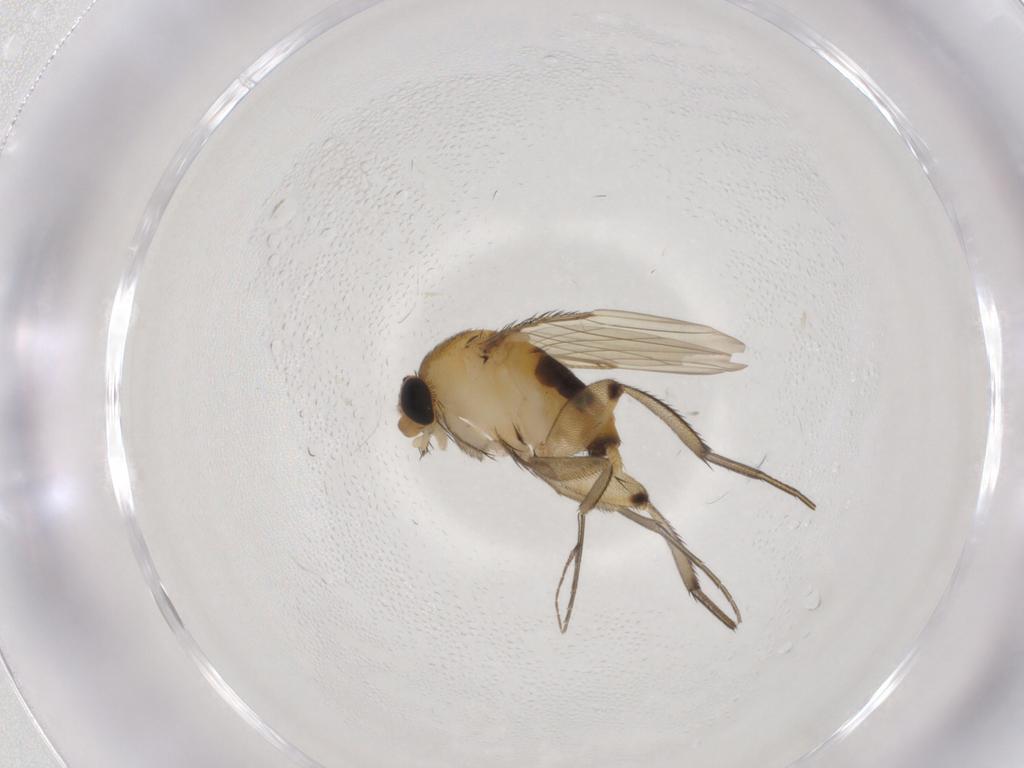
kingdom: Animalia
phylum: Arthropoda
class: Insecta
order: Diptera
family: Phoridae
